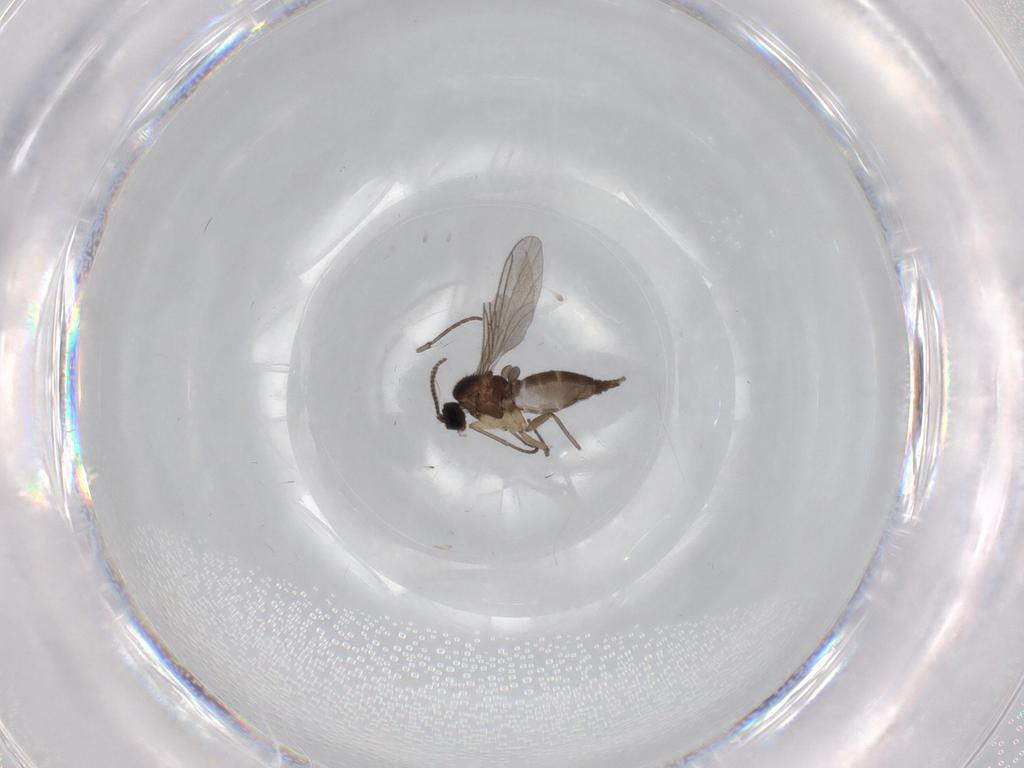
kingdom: Animalia
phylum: Arthropoda
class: Insecta
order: Diptera
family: Sciaridae
